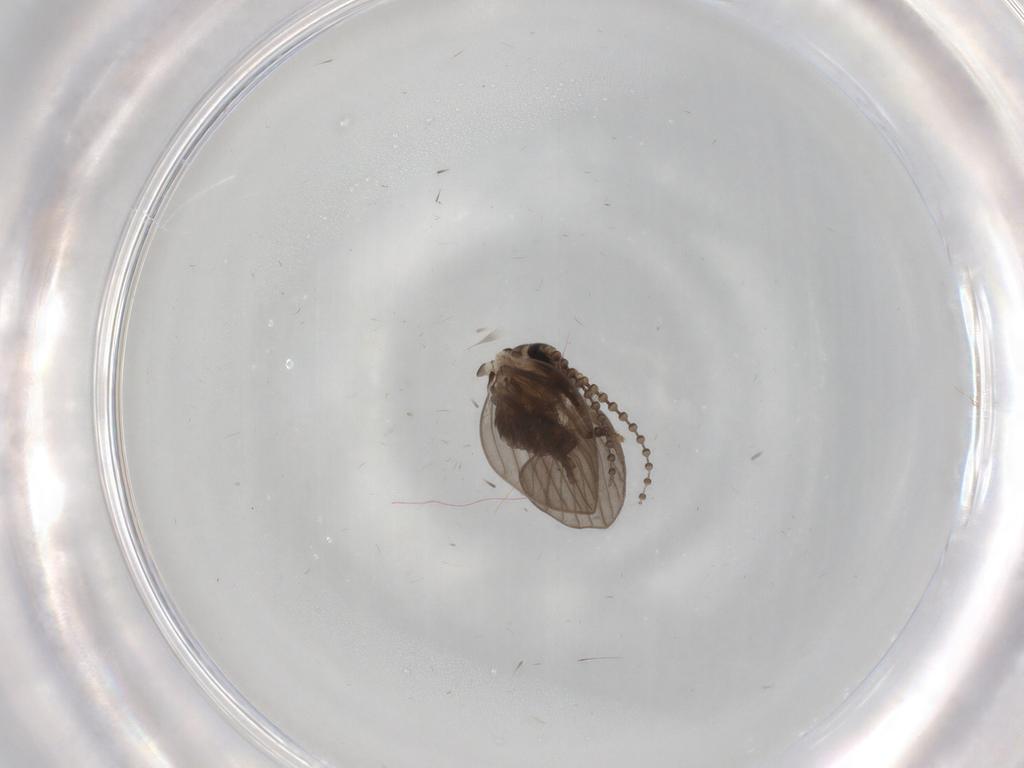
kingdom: Animalia
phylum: Arthropoda
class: Insecta
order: Diptera
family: Psychodidae
